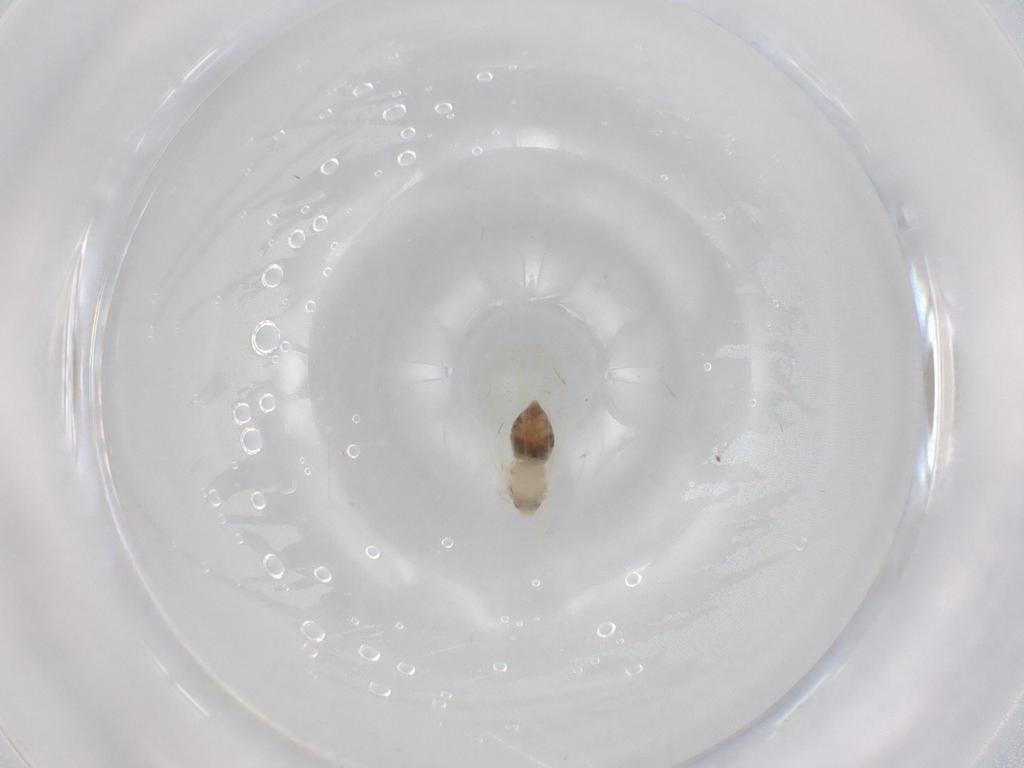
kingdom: Animalia
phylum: Arthropoda
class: Insecta
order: Hemiptera
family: Aleyrodidae
